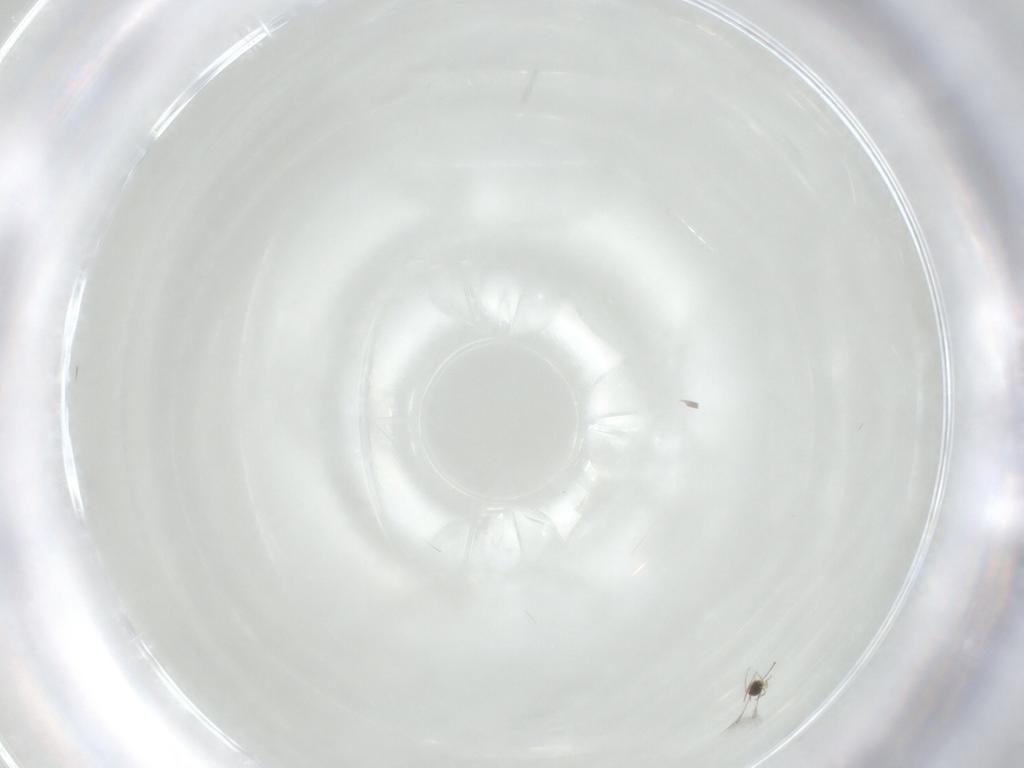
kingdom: Animalia
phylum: Arthropoda
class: Insecta
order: Hymenoptera
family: Mymaridae
